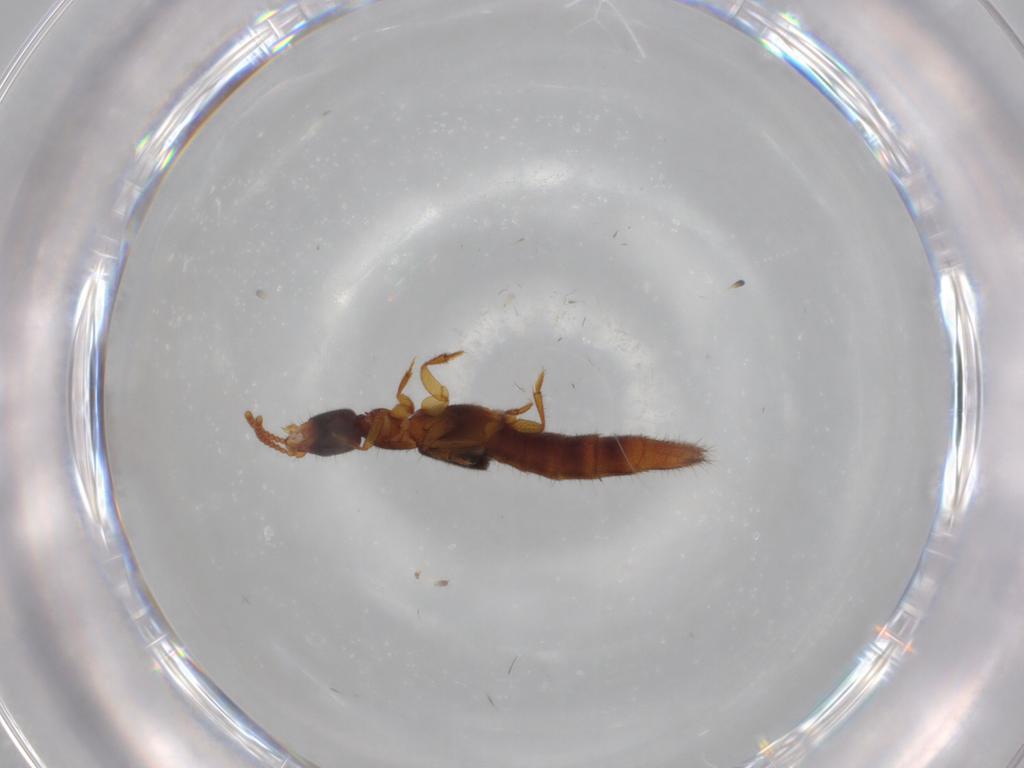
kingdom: Animalia
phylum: Arthropoda
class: Insecta
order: Coleoptera
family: Staphylinidae
